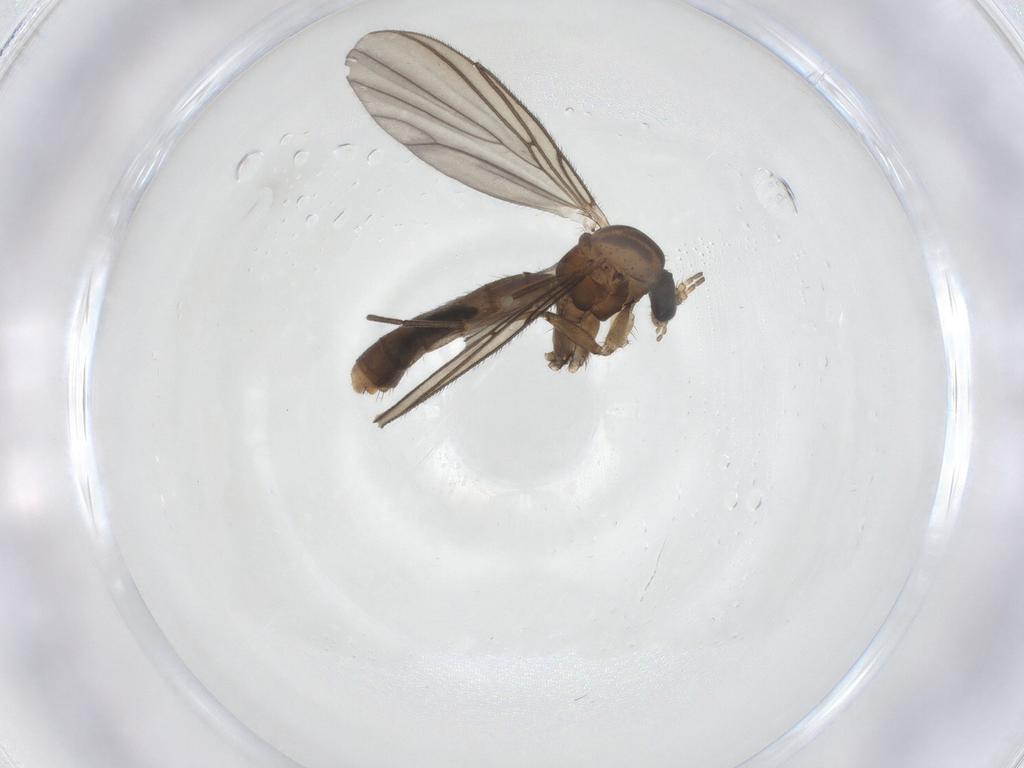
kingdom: Animalia
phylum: Arthropoda
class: Insecta
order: Diptera
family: Mycetophilidae
